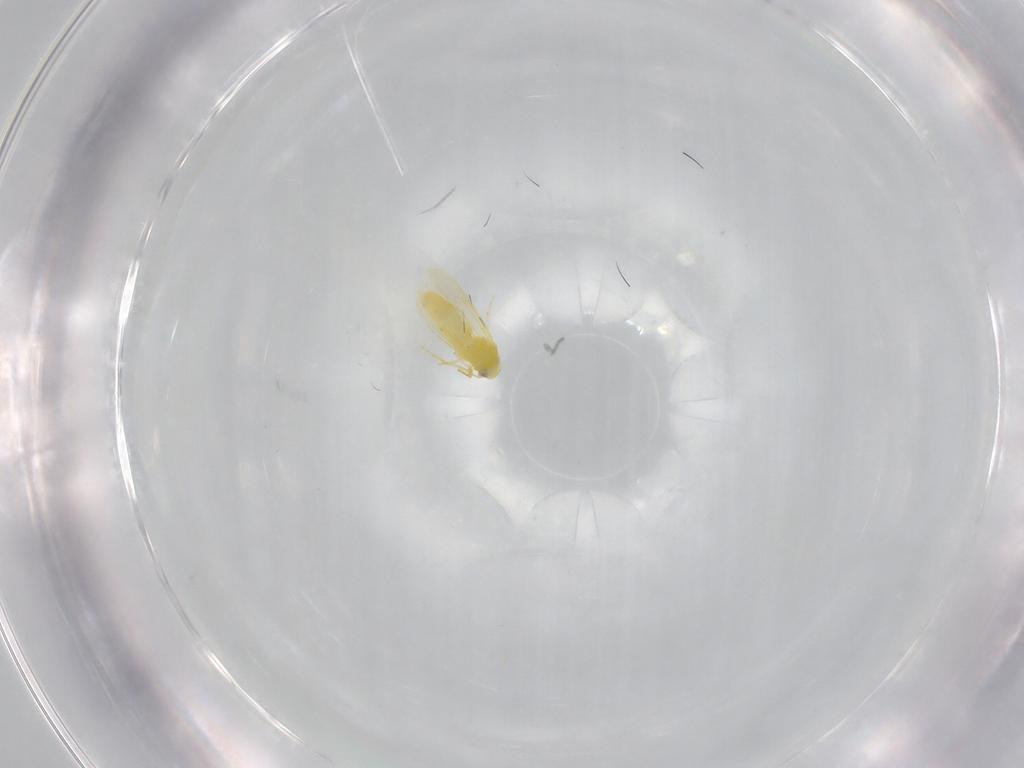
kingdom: Animalia
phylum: Arthropoda
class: Insecta
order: Hemiptera
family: Aleyrodidae
